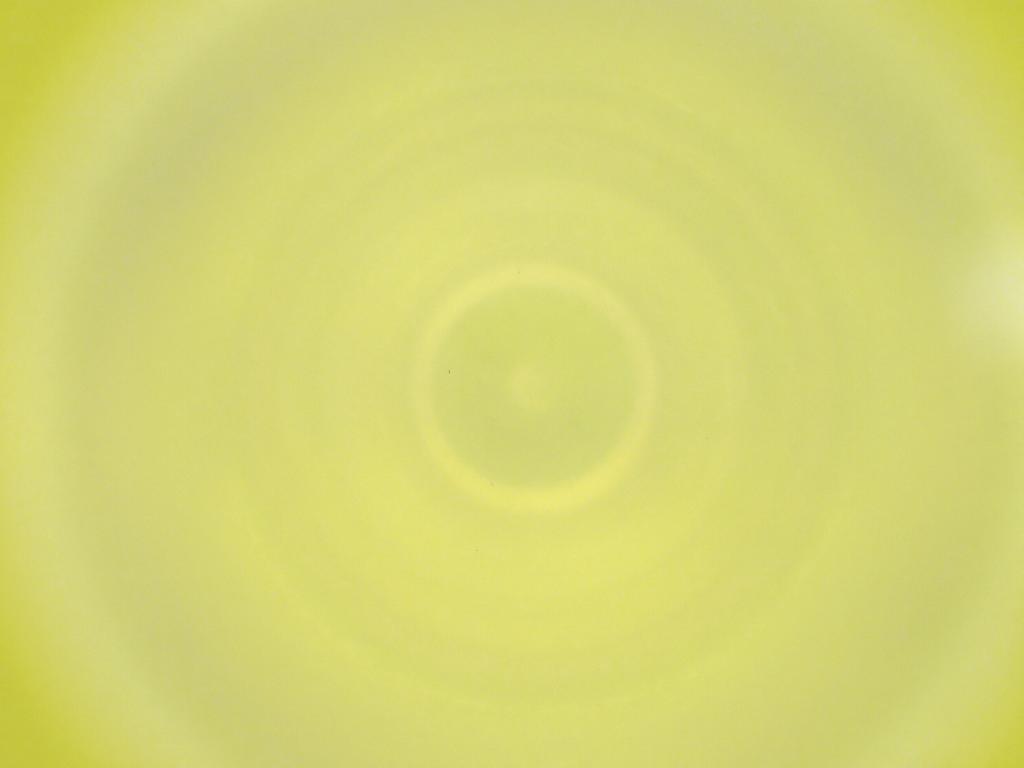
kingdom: Animalia
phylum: Arthropoda
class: Insecta
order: Diptera
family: Cecidomyiidae
